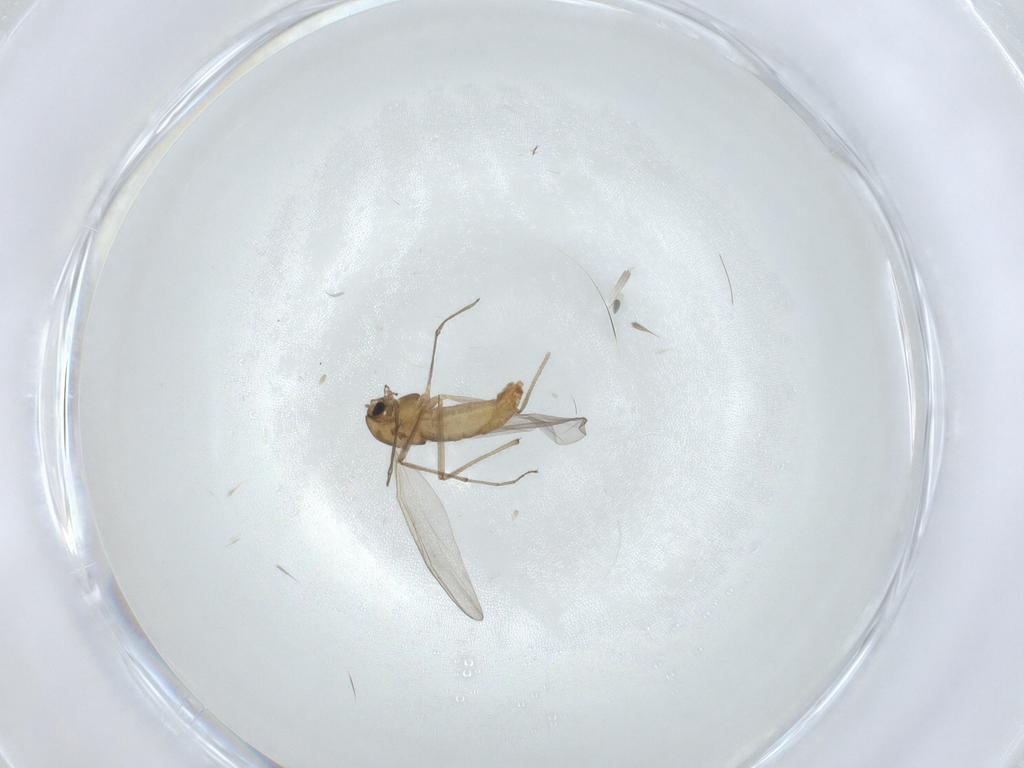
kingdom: Animalia
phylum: Arthropoda
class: Insecta
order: Diptera
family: Chironomidae
